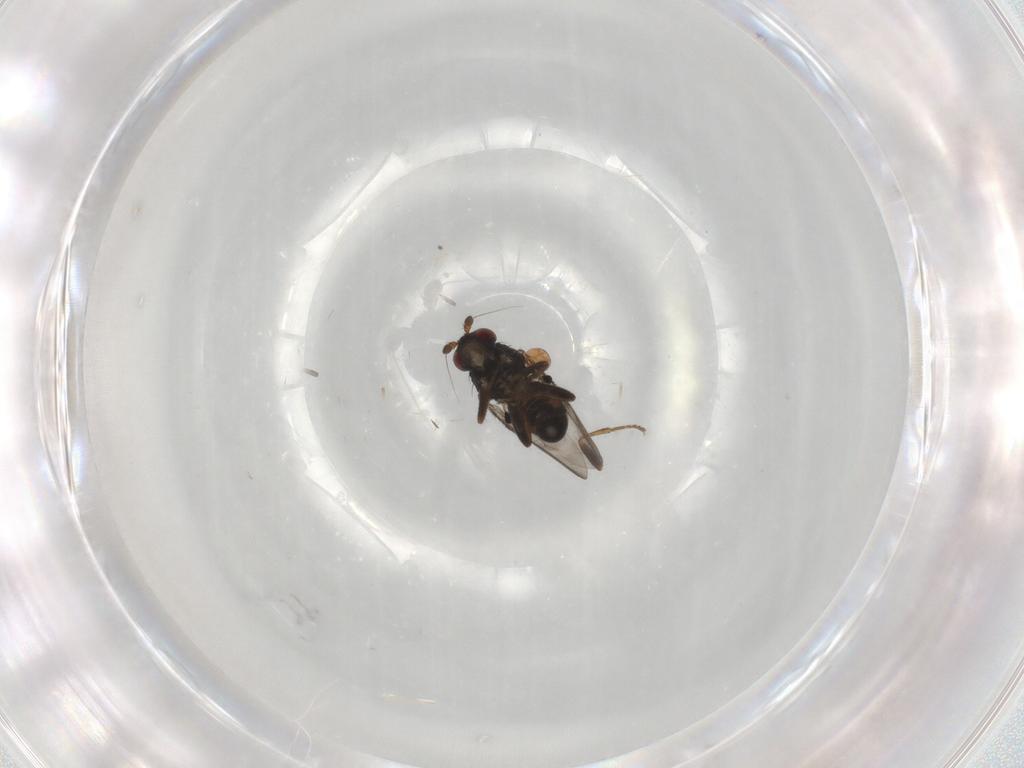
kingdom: Animalia
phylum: Arthropoda
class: Insecta
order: Diptera
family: Sphaeroceridae
